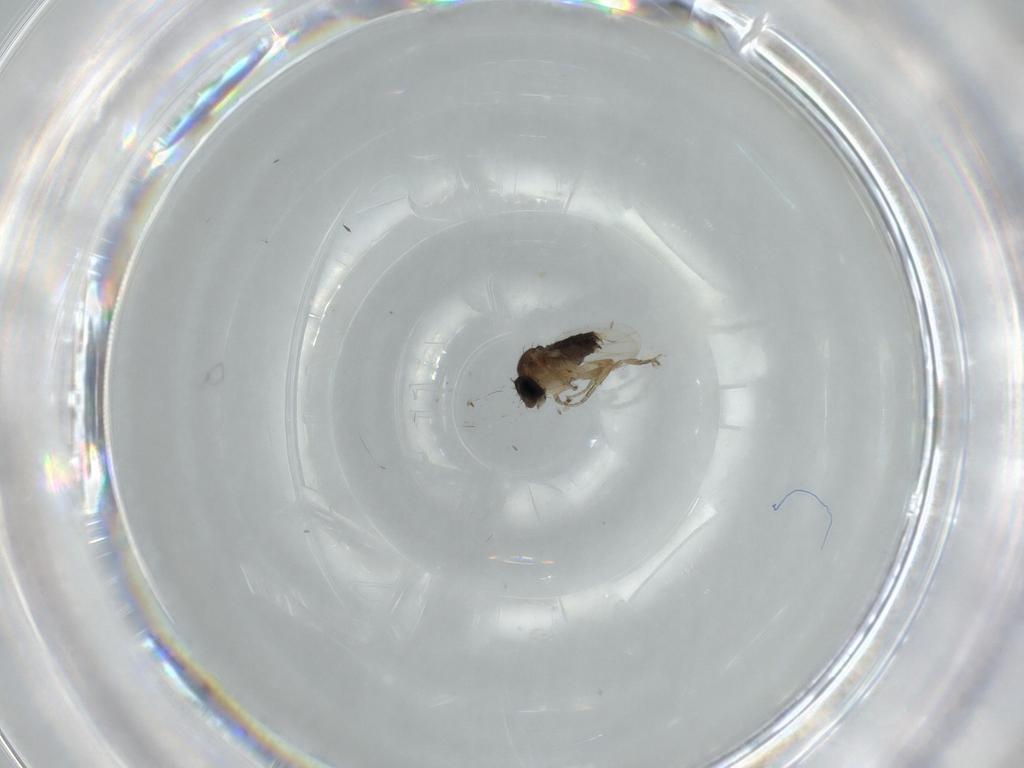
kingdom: Animalia
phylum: Arthropoda
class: Insecta
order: Diptera
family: Phoridae
